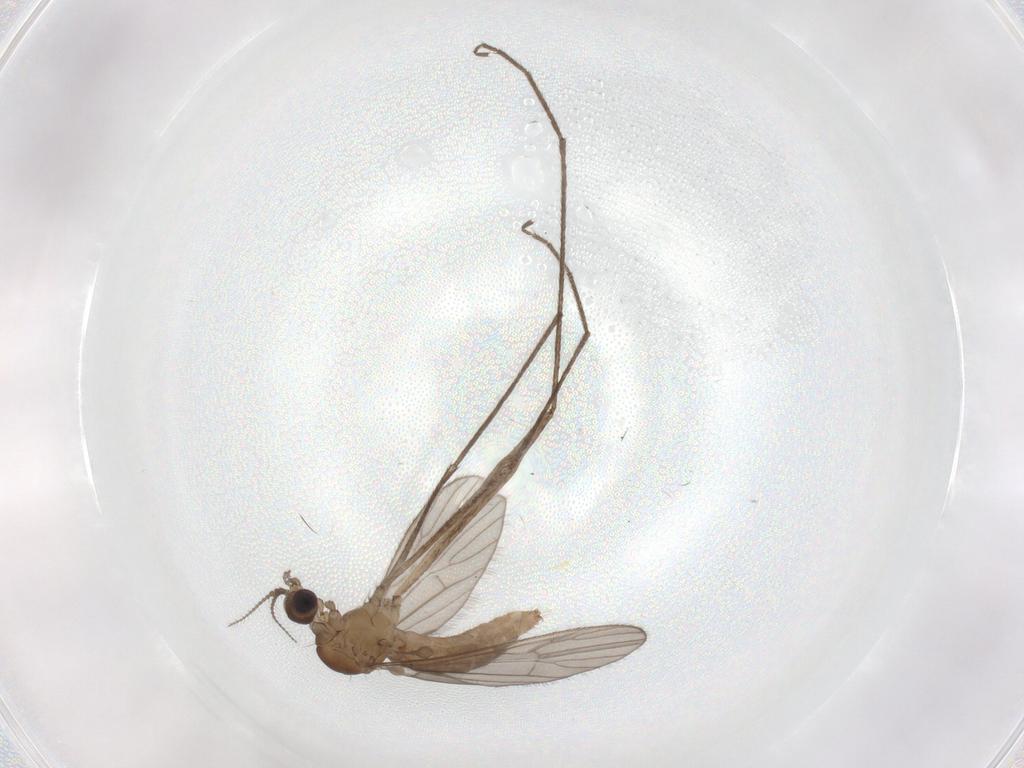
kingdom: Animalia
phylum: Arthropoda
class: Insecta
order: Diptera
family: Limoniidae
